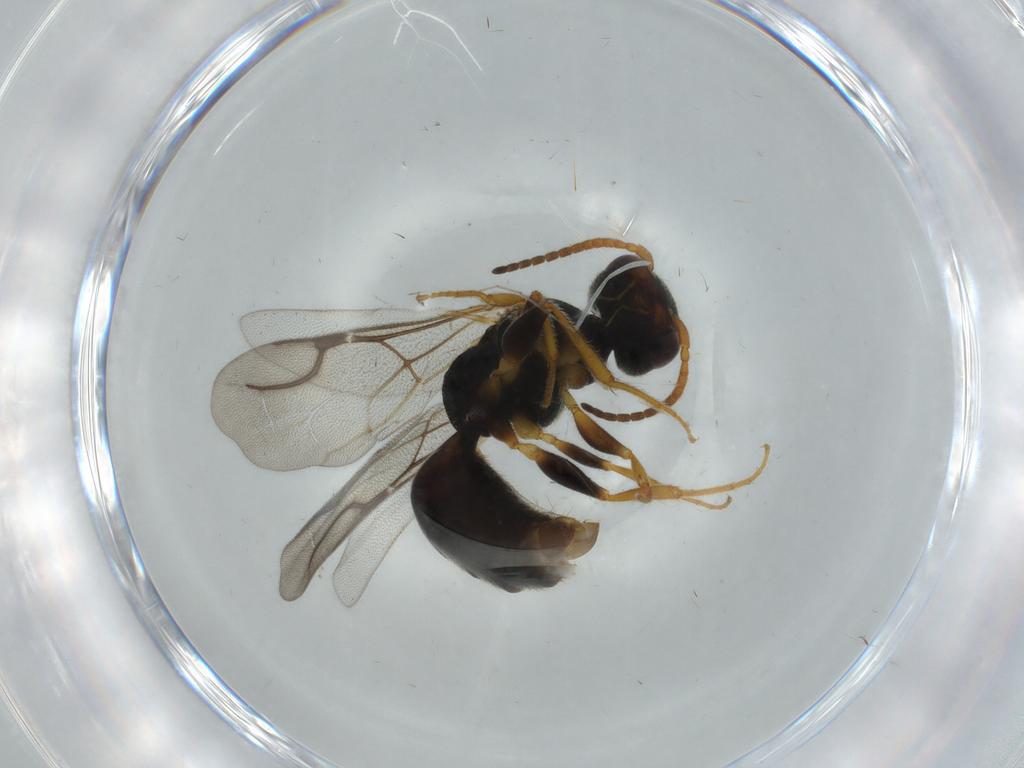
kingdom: Animalia
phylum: Arthropoda
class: Insecta
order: Hymenoptera
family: Bethylidae
